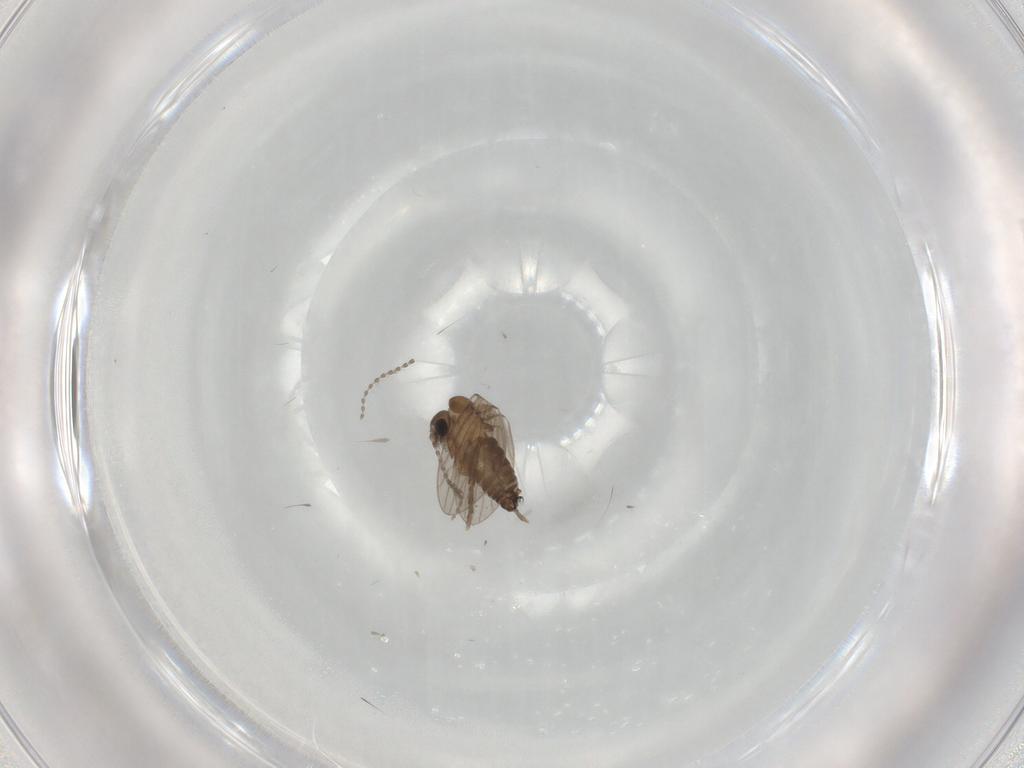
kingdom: Animalia
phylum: Arthropoda
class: Insecta
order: Diptera
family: Psychodidae
